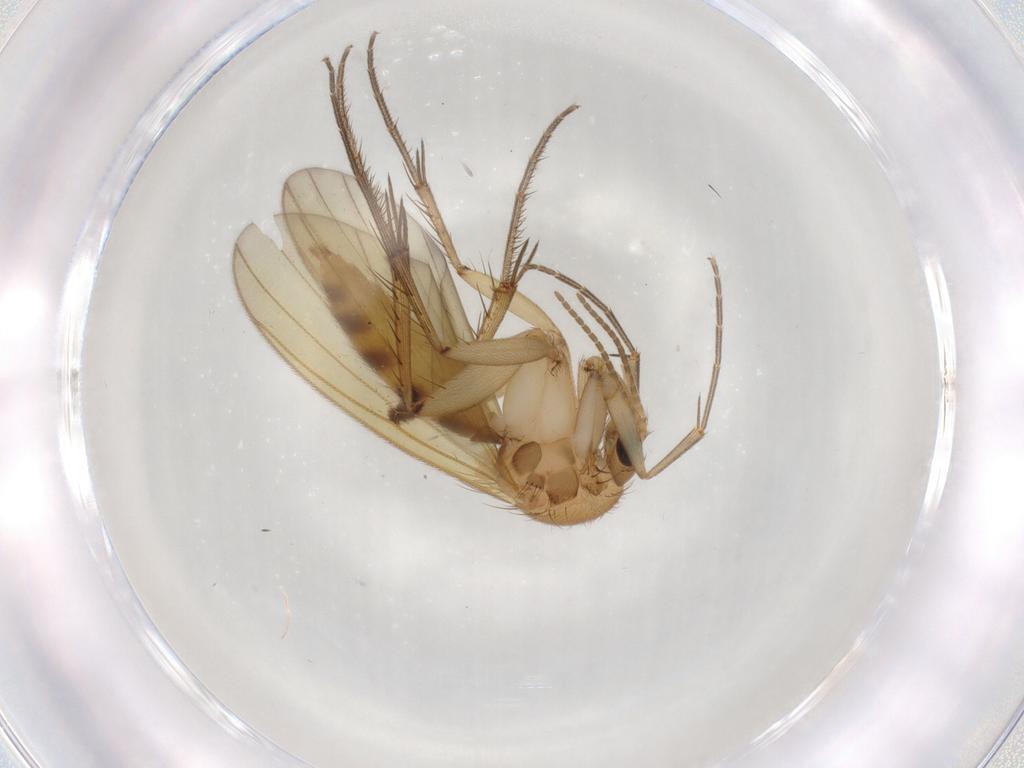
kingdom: Animalia
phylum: Arthropoda
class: Insecta
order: Diptera
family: Mycetophilidae
